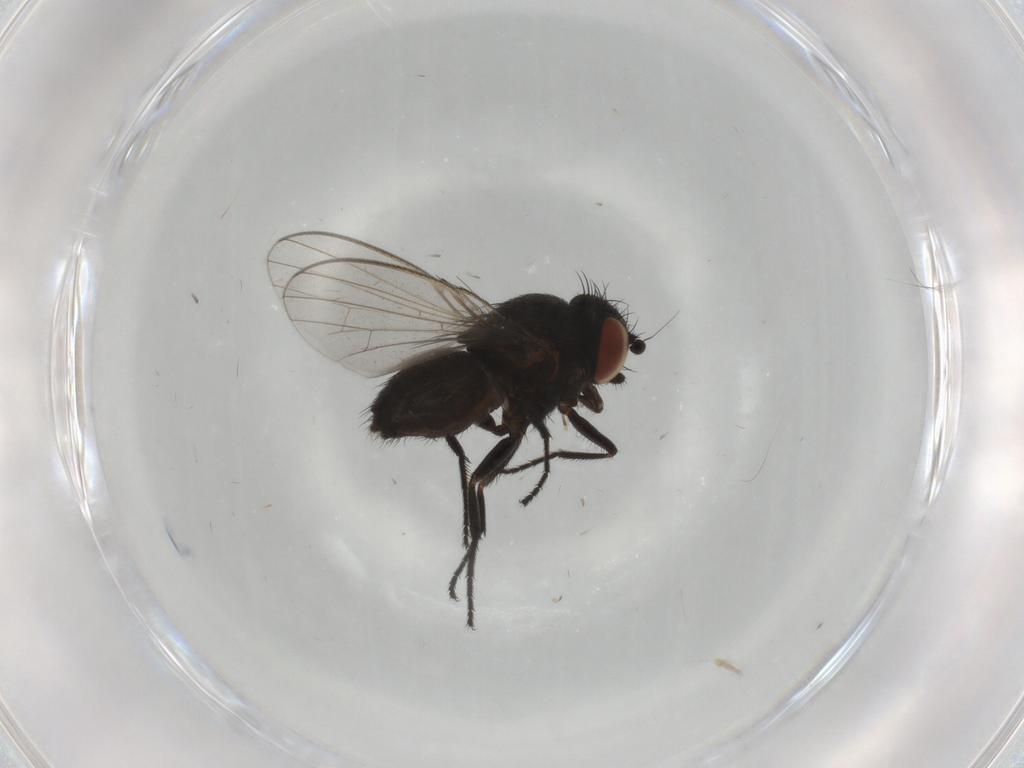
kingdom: Animalia
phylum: Arthropoda
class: Insecta
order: Diptera
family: Milichiidae
